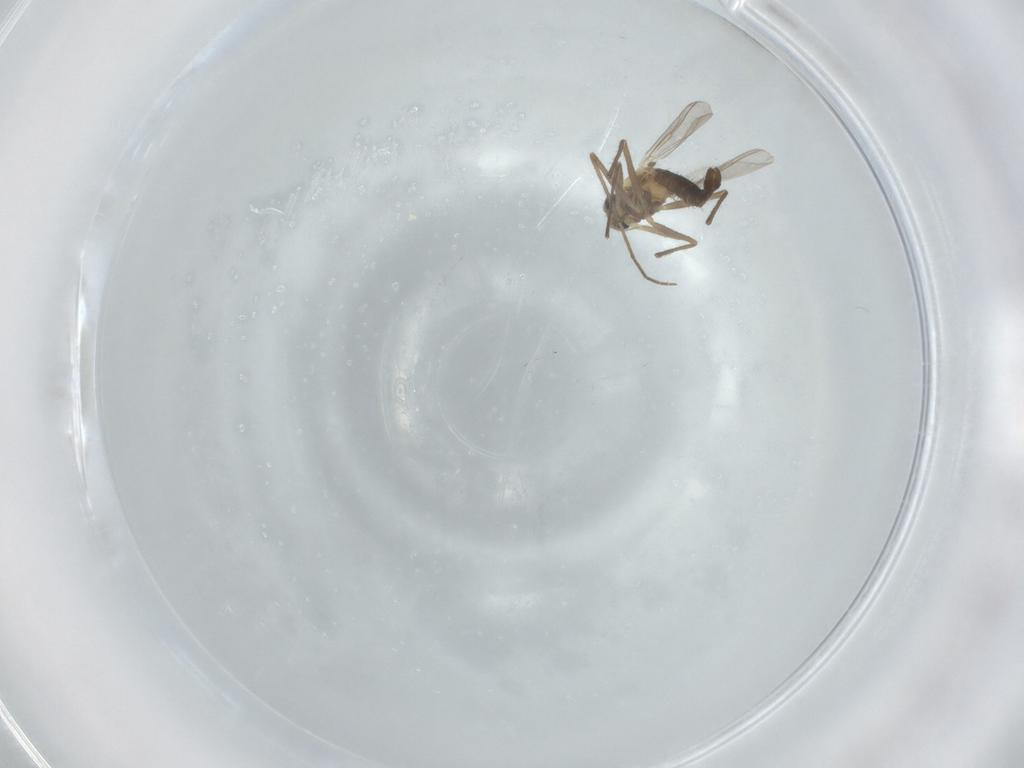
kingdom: Animalia
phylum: Arthropoda
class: Insecta
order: Diptera
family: Chironomidae
